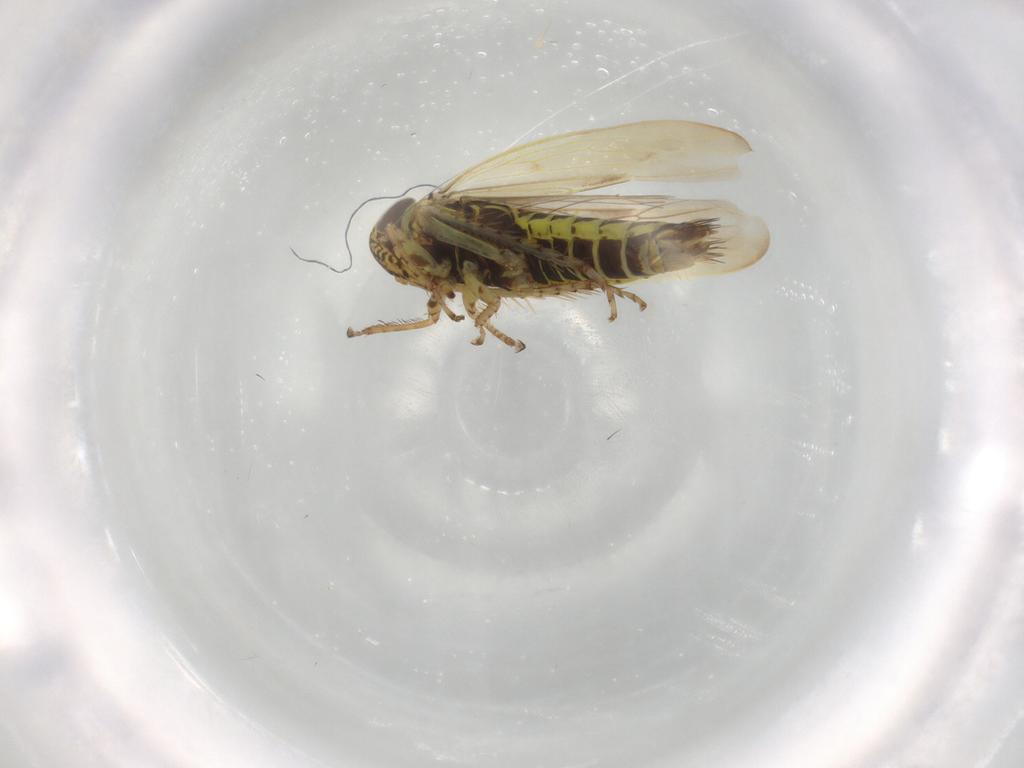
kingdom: Animalia
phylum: Arthropoda
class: Insecta
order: Hemiptera
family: Cicadellidae
